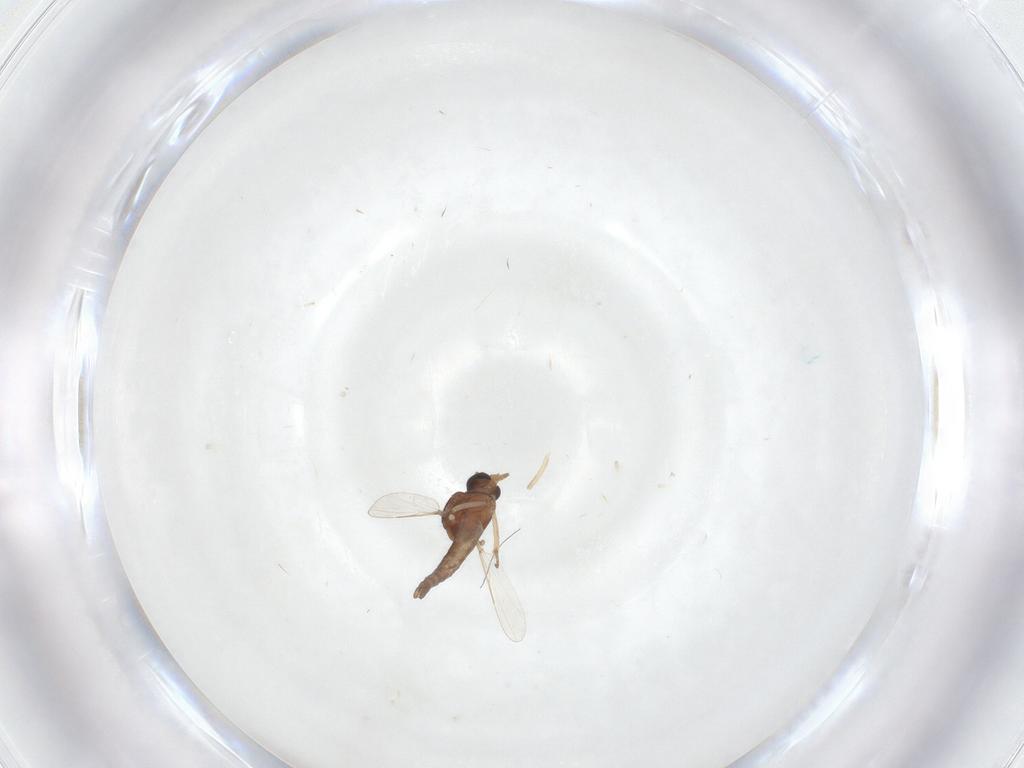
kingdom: Animalia
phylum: Arthropoda
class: Insecta
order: Diptera
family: Ceratopogonidae
